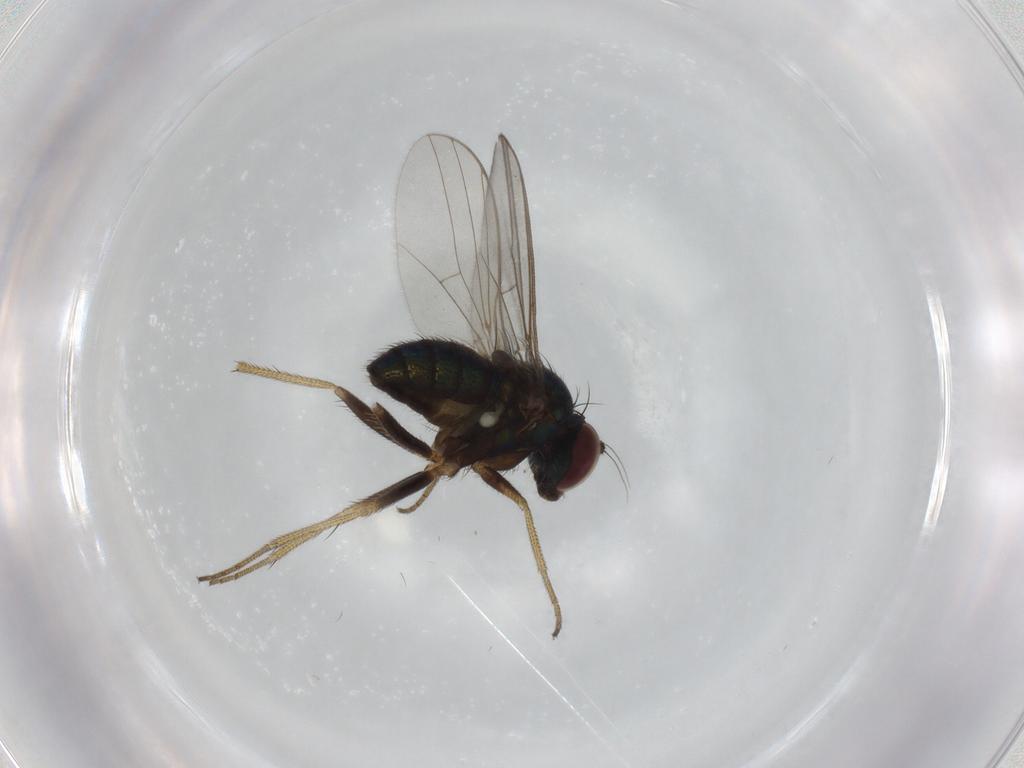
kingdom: Animalia
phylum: Arthropoda
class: Insecta
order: Diptera
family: Dolichopodidae
